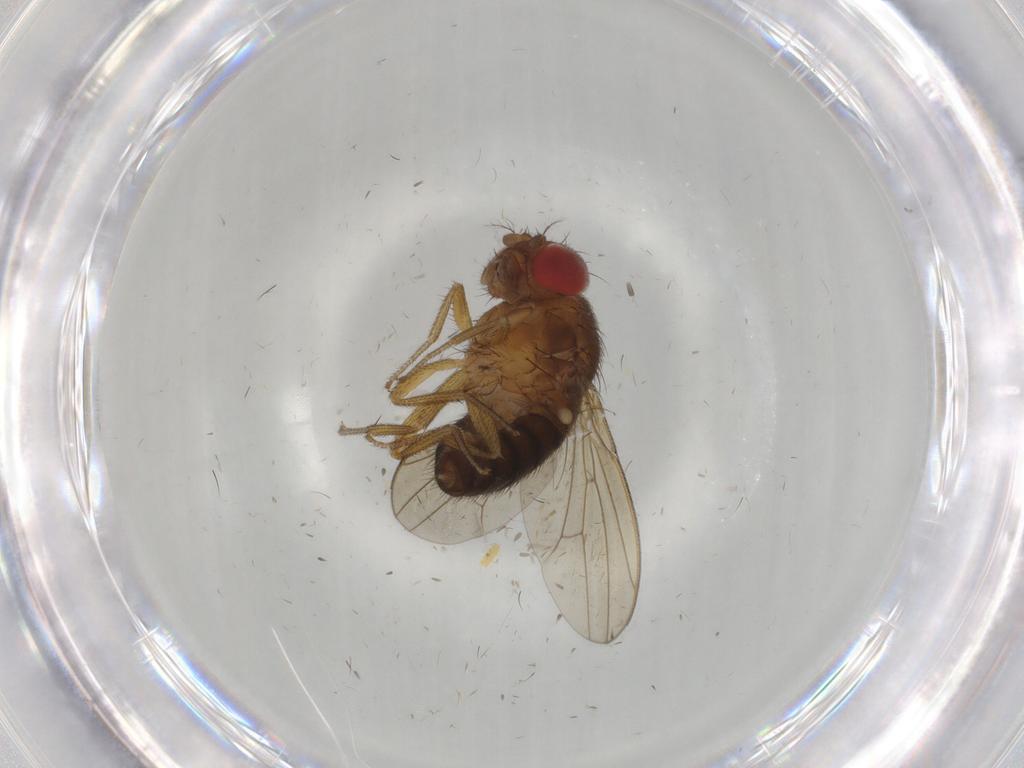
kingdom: Animalia
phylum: Arthropoda
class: Insecta
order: Diptera
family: Drosophilidae
